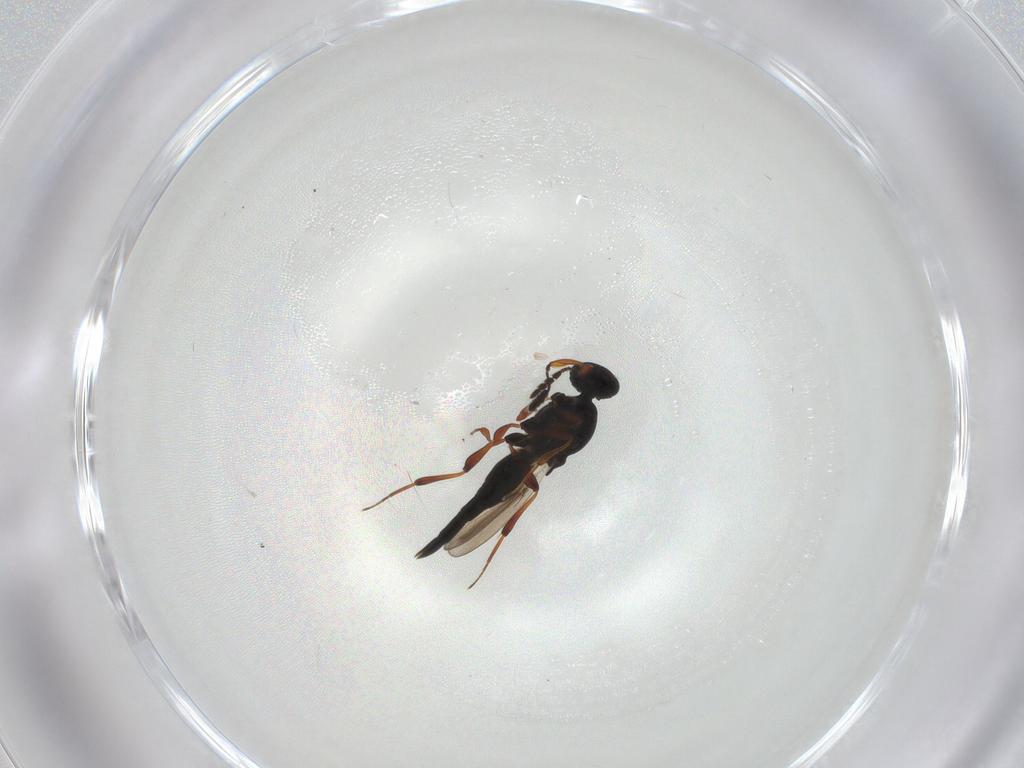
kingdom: Animalia
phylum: Arthropoda
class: Insecta
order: Hymenoptera
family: Platygastridae
